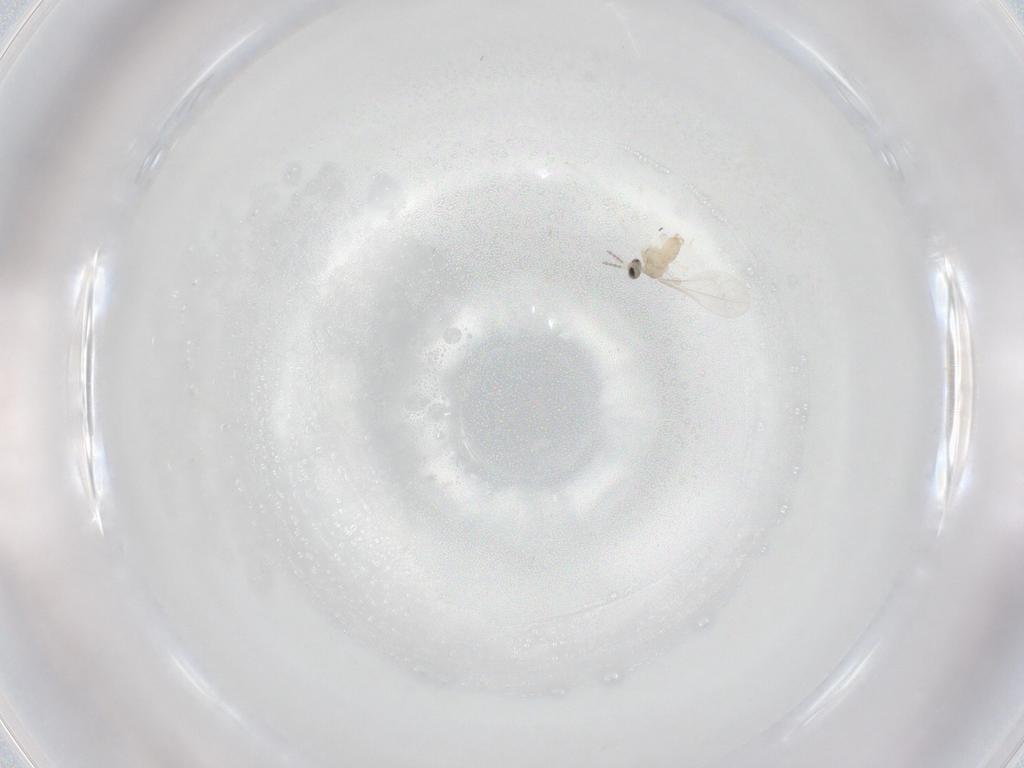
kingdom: Animalia
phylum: Arthropoda
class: Insecta
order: Diptera
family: Cecidomyiidae
